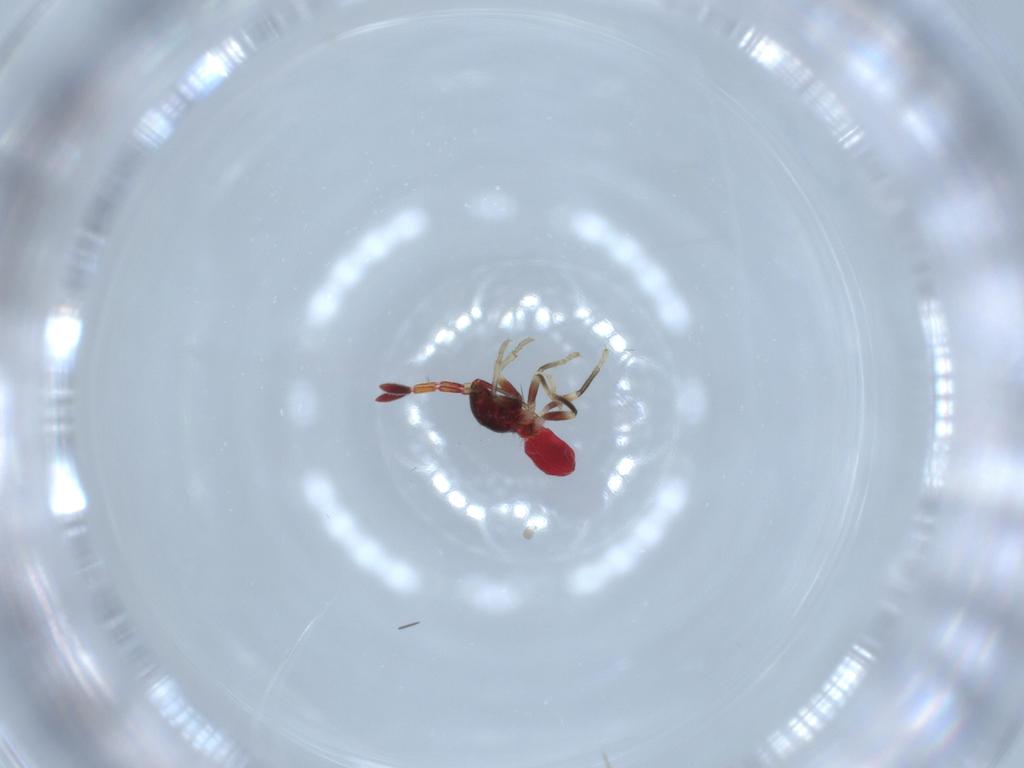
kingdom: Animalia
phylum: Arthropoda
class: Insecta
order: Hemiptera
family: Rhyparochromidae
